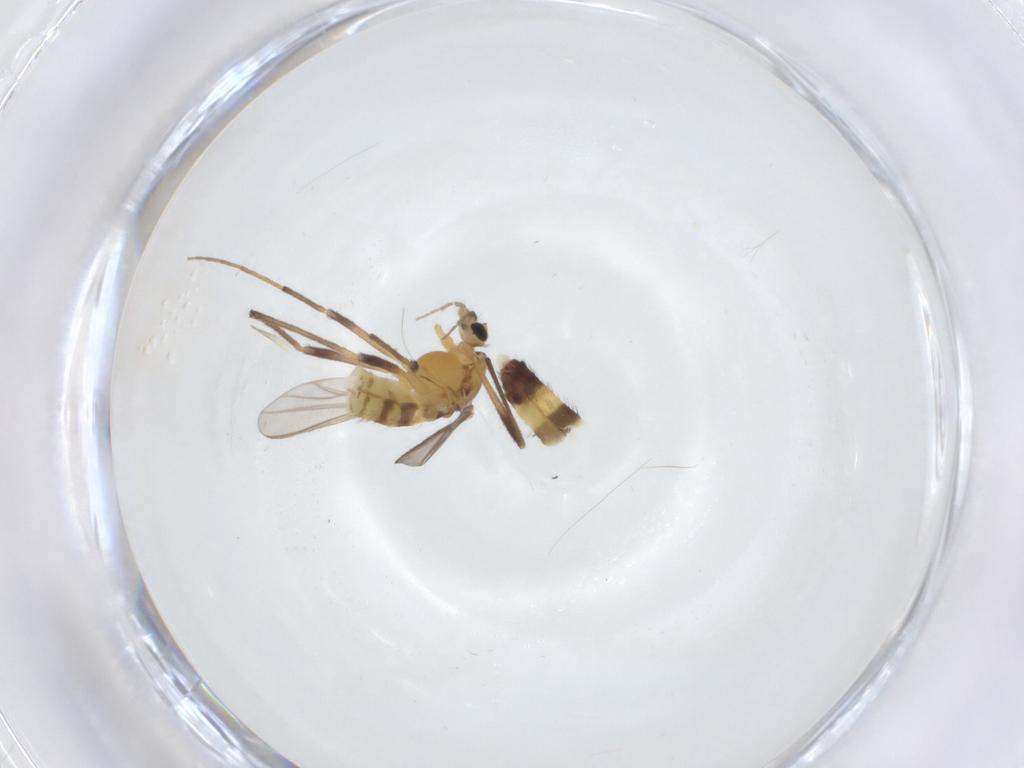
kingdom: Animalia
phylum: Arthropoda
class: Insecta
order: Diptera
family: Chironomidae
